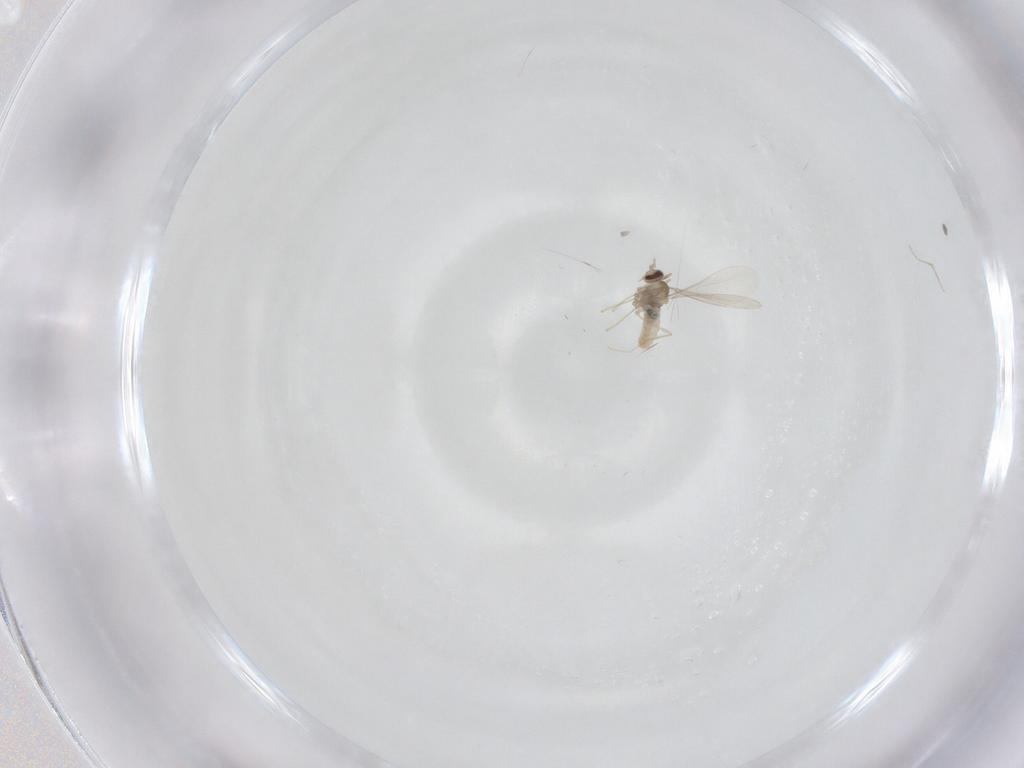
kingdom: Animalia
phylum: Arthropoda
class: Insecta
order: Diptera
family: Cecidomyiidae
